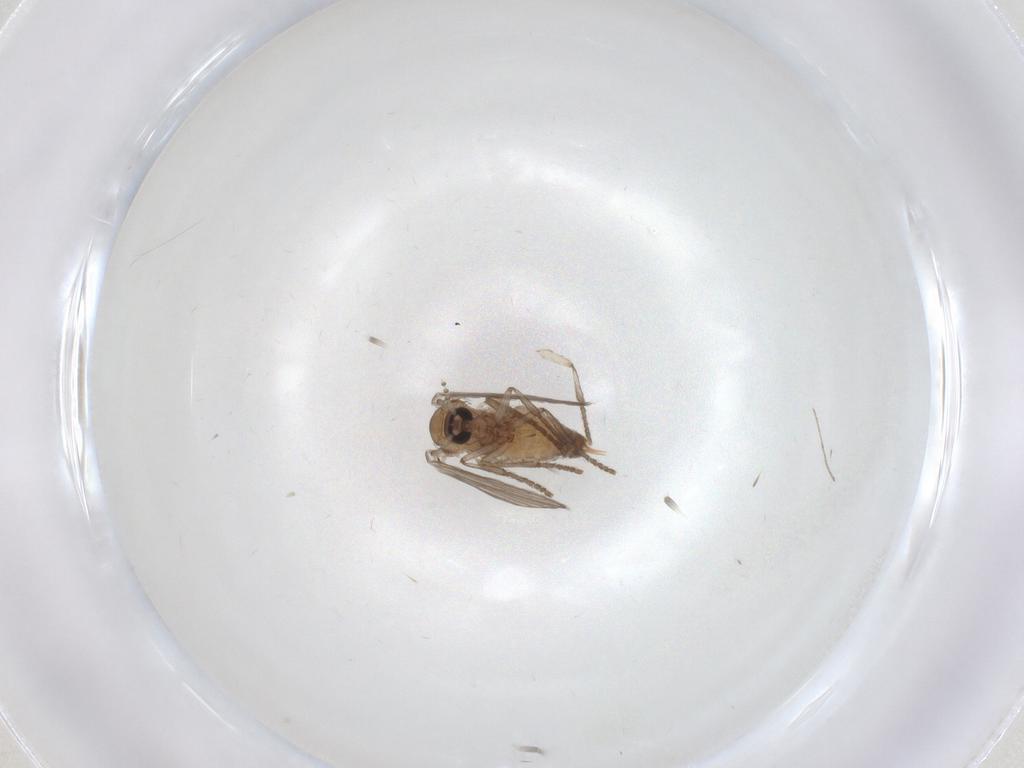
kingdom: Animalia
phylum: Arthropoda
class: Insecta
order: Diptera
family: Psychodidae
